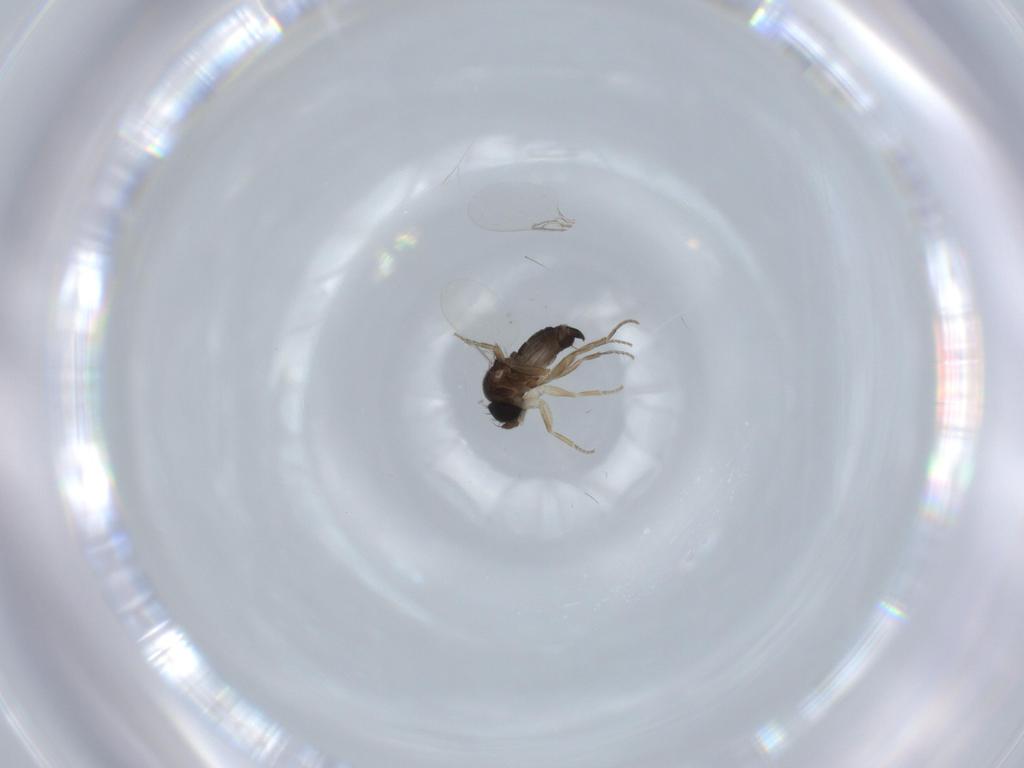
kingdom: Animalia
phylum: Arthropoda
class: Insecta
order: Diptera
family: Phoridae
